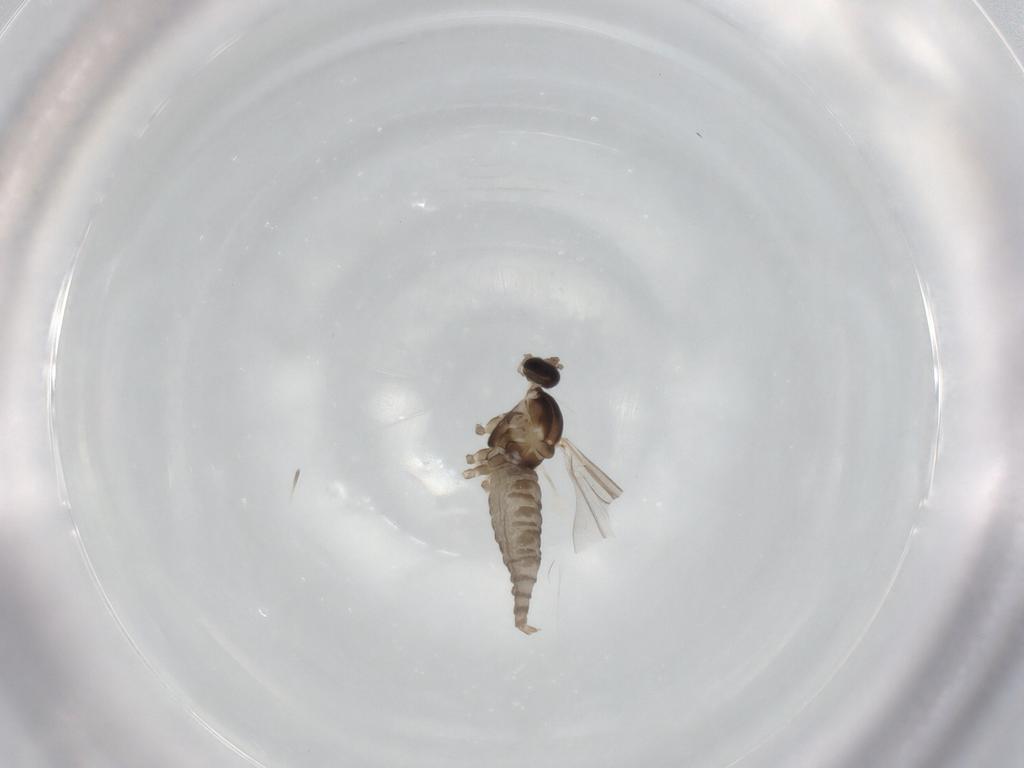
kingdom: Animalia
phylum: Arthropoda
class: Insecta
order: Diptera
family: Cecidomyiidae
